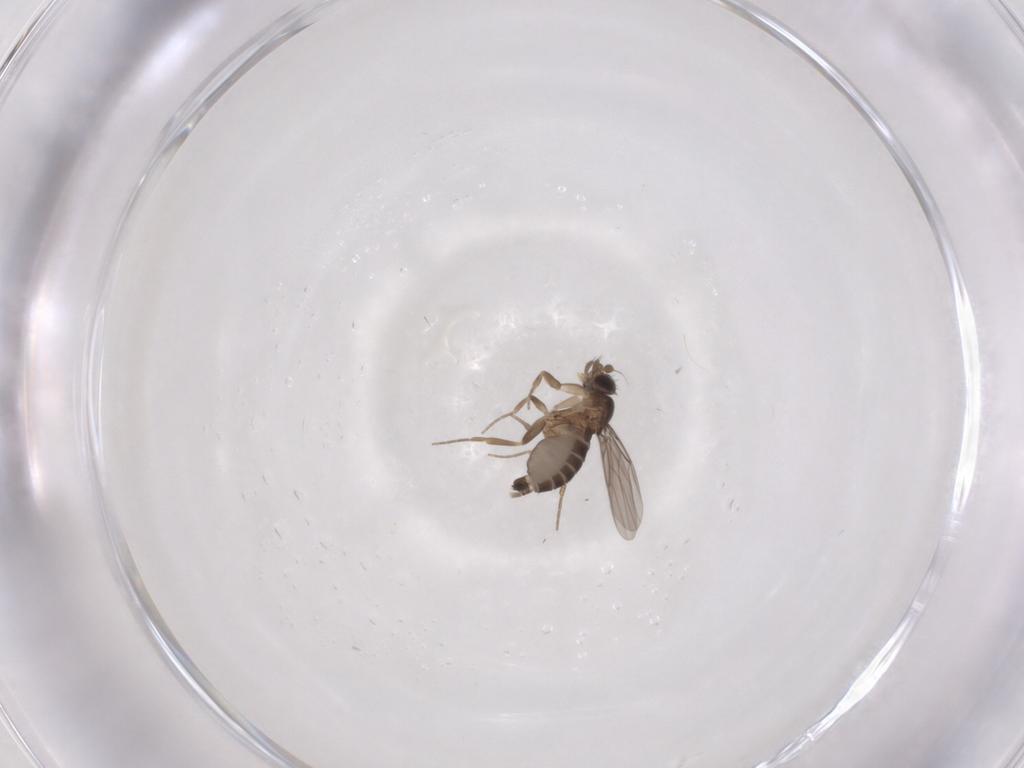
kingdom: Animalia
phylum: Arthropoda
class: Insecta
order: Diptera
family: Phoridae
